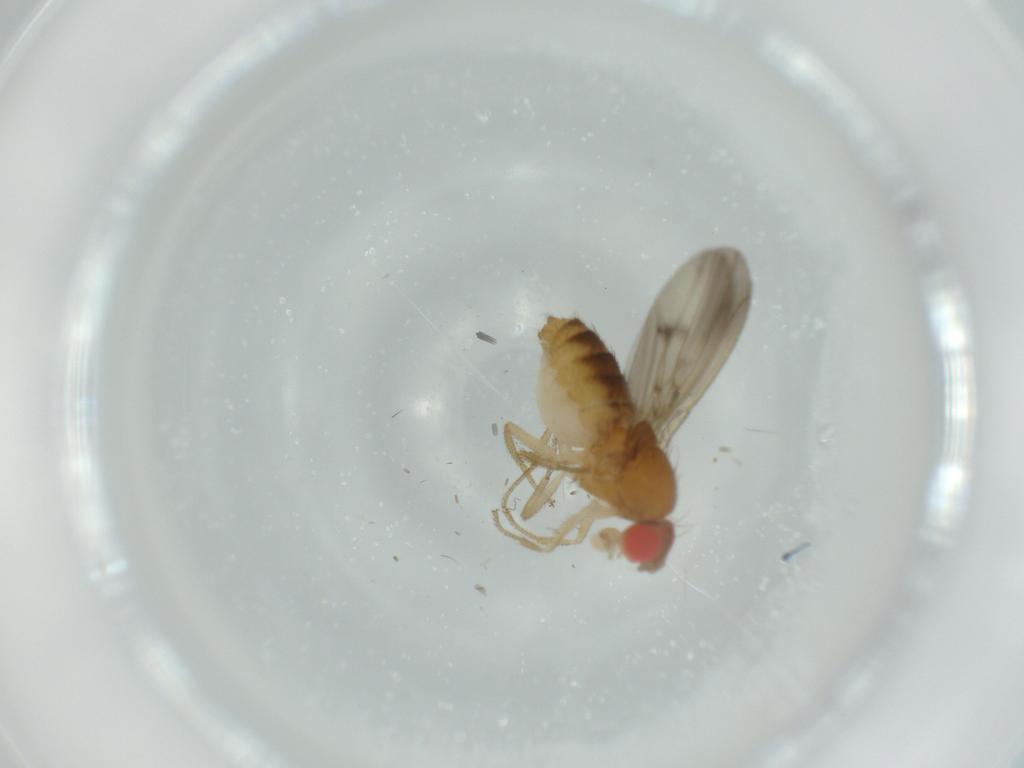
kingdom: Animalia
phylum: Arthropoda
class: Insecta
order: Diptera
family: Drosophilidae
